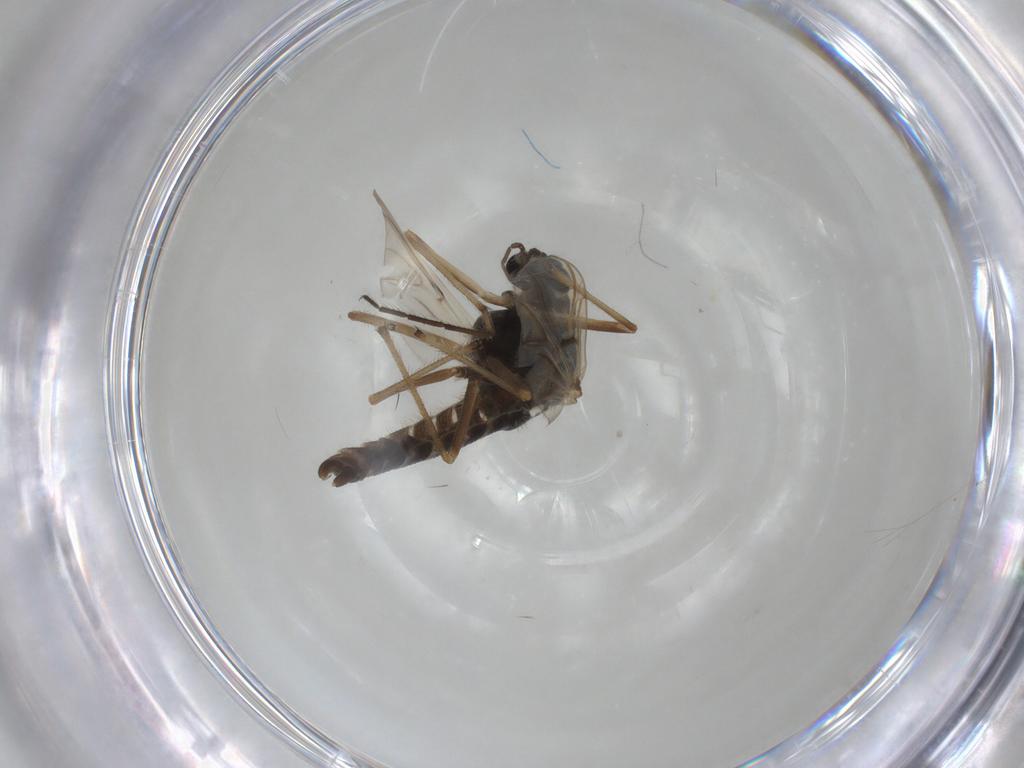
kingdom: Animalia
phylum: Arthropoda
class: Insecta
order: Diptera
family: Chironomidae
